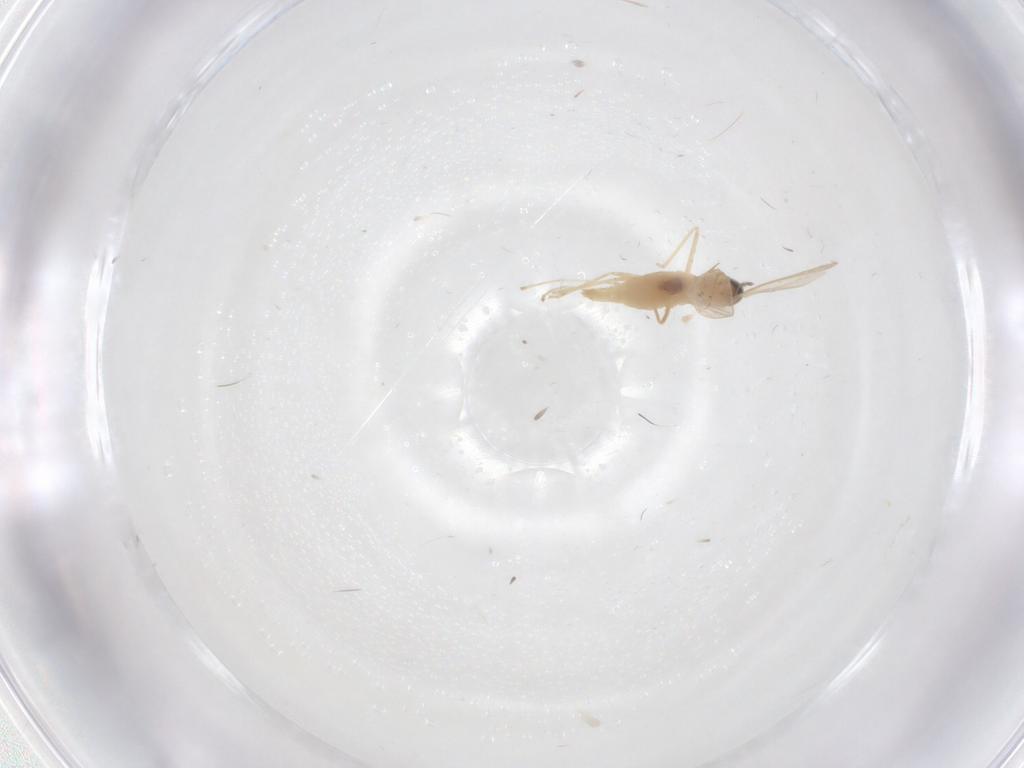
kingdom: Animalia
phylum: Arthropoda
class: Insecta
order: Diptera
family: Cecidomyiidae
